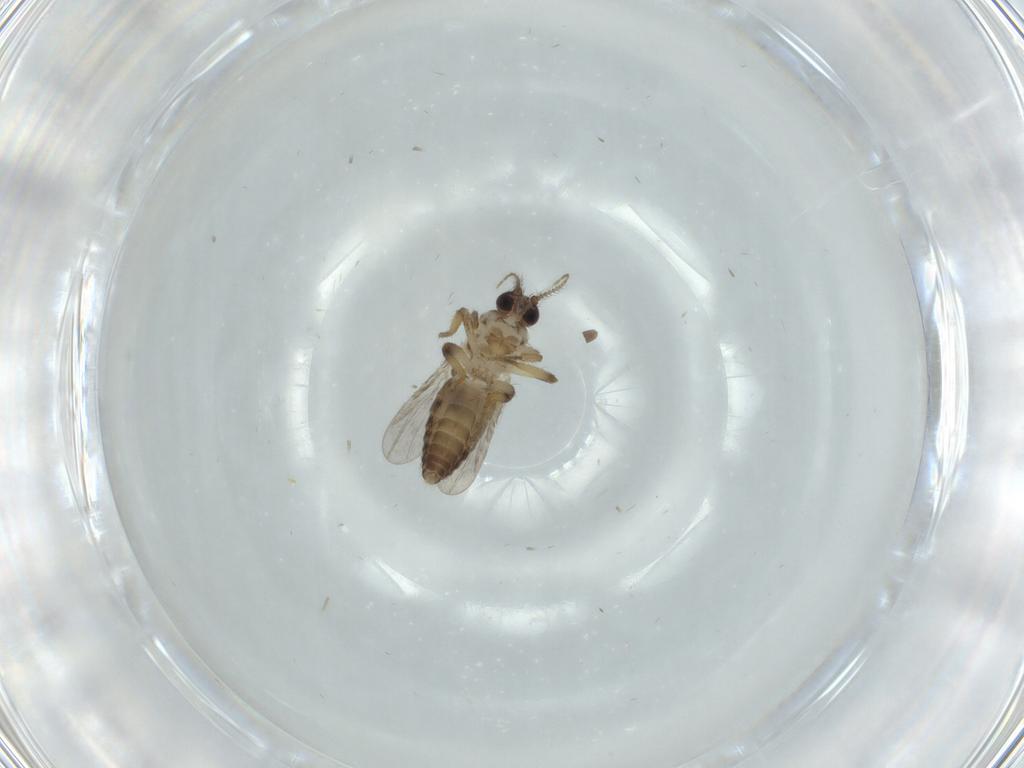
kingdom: Animalia
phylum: Arthropoda
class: Insecta
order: Diptera
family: Ceratopogonidae
